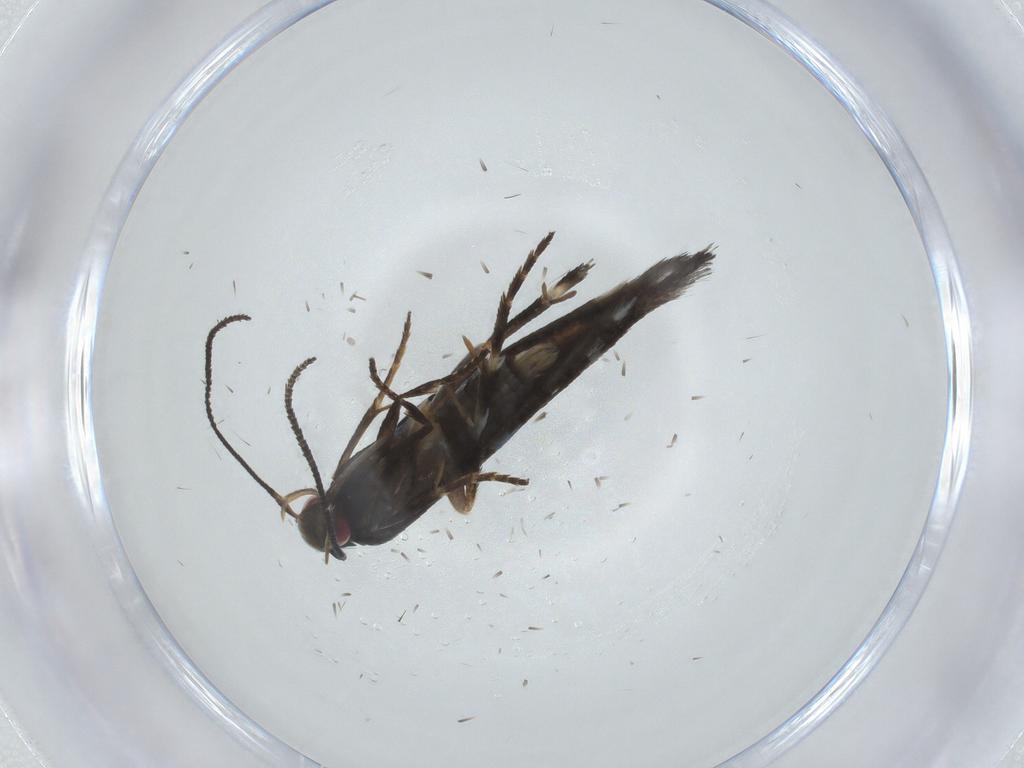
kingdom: Animalia
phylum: Arthropoda
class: Insecta
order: Lepidoptera
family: Momphidae
